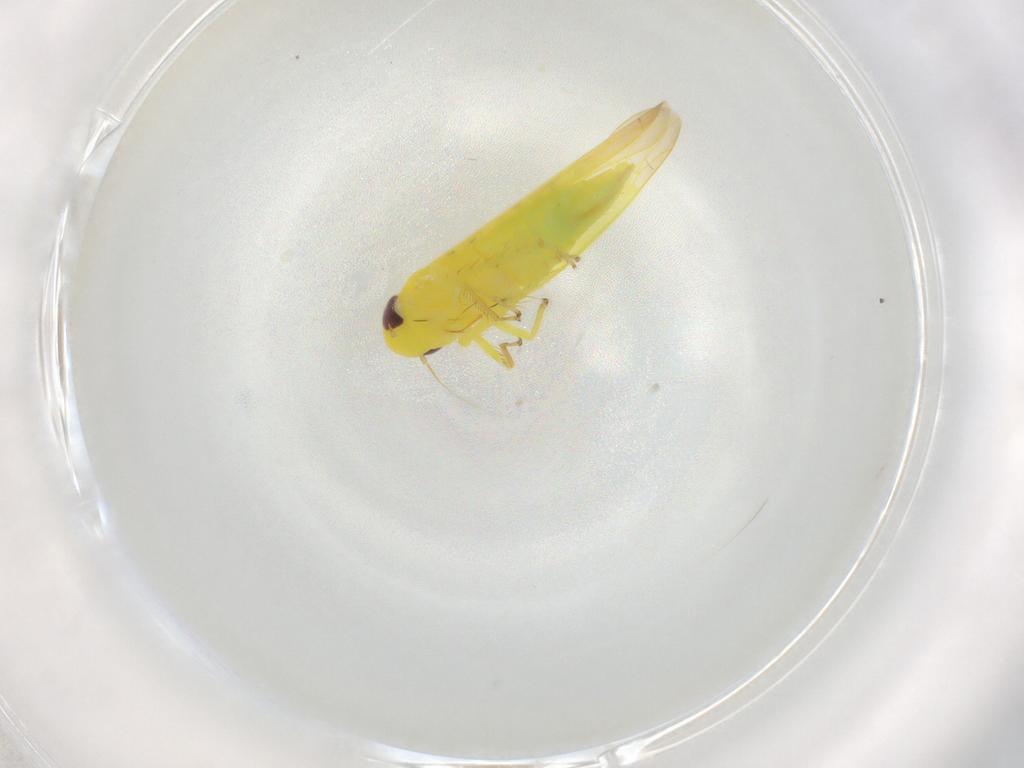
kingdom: Animalia
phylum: Arthropoda
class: Insecta
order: Hemiptera
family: Cicadellidae
